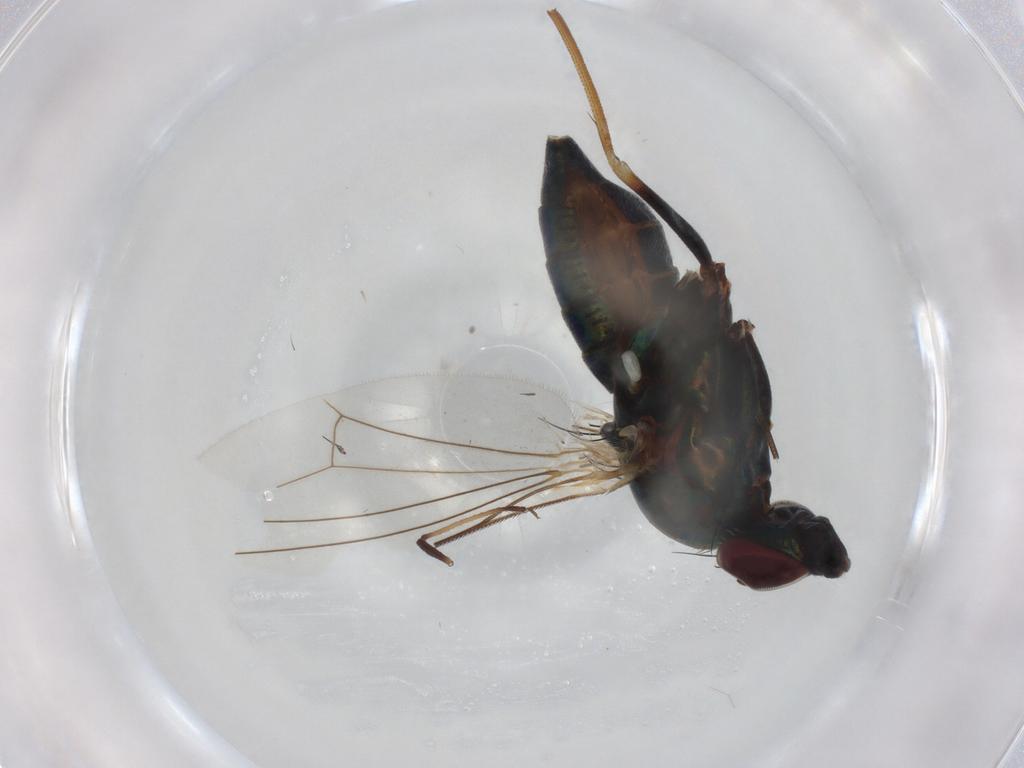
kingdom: Animalia
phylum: Arthropoda
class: Insecta
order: Diptera
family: Dolichopodidae
